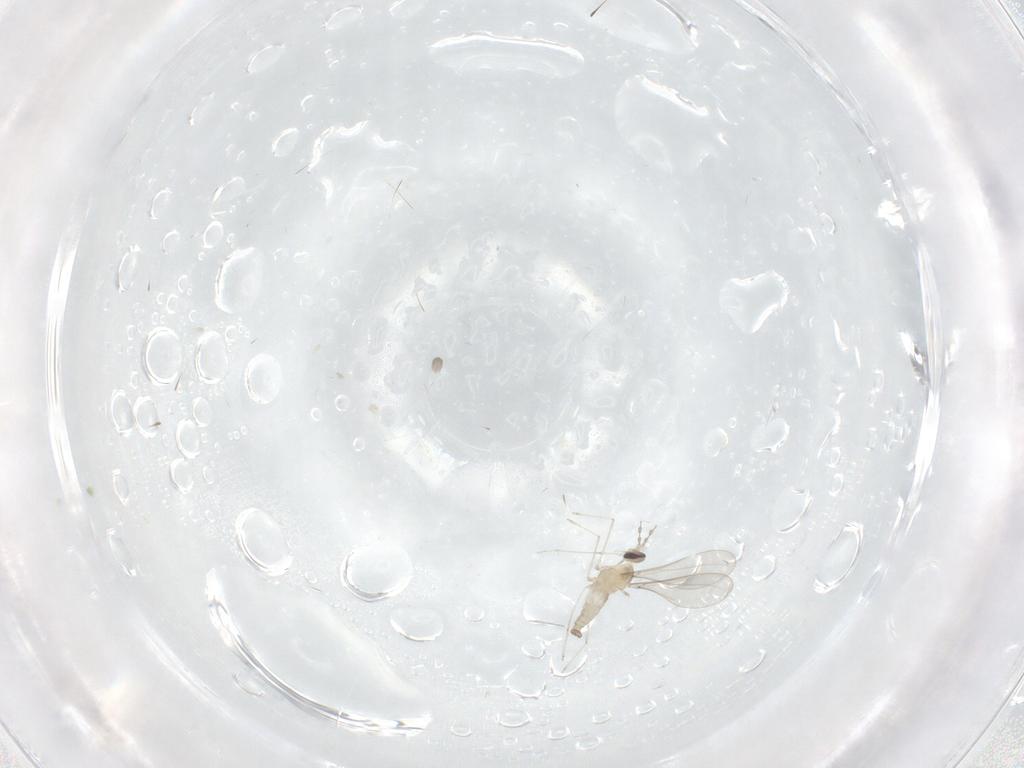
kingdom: Animalia
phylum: Arthropoda
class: Insecta
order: Diptera
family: Cecidomyiidae
